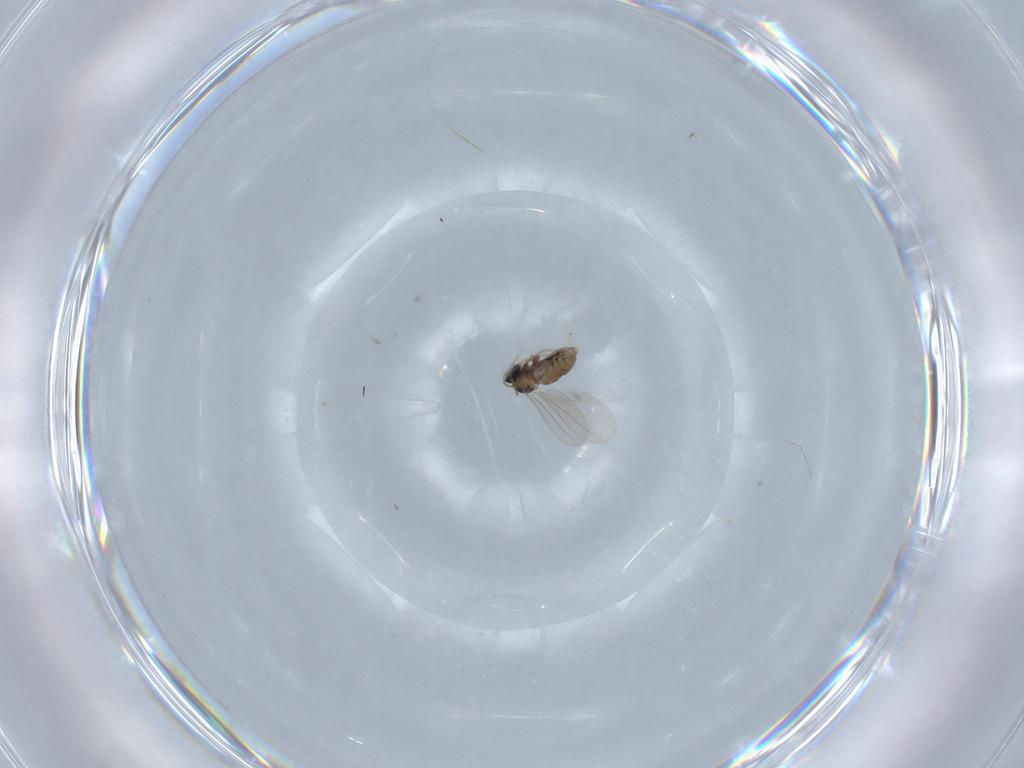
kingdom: Animalia
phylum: Arthropoda
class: Insecta
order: Diptera
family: Cecidomyiidae
